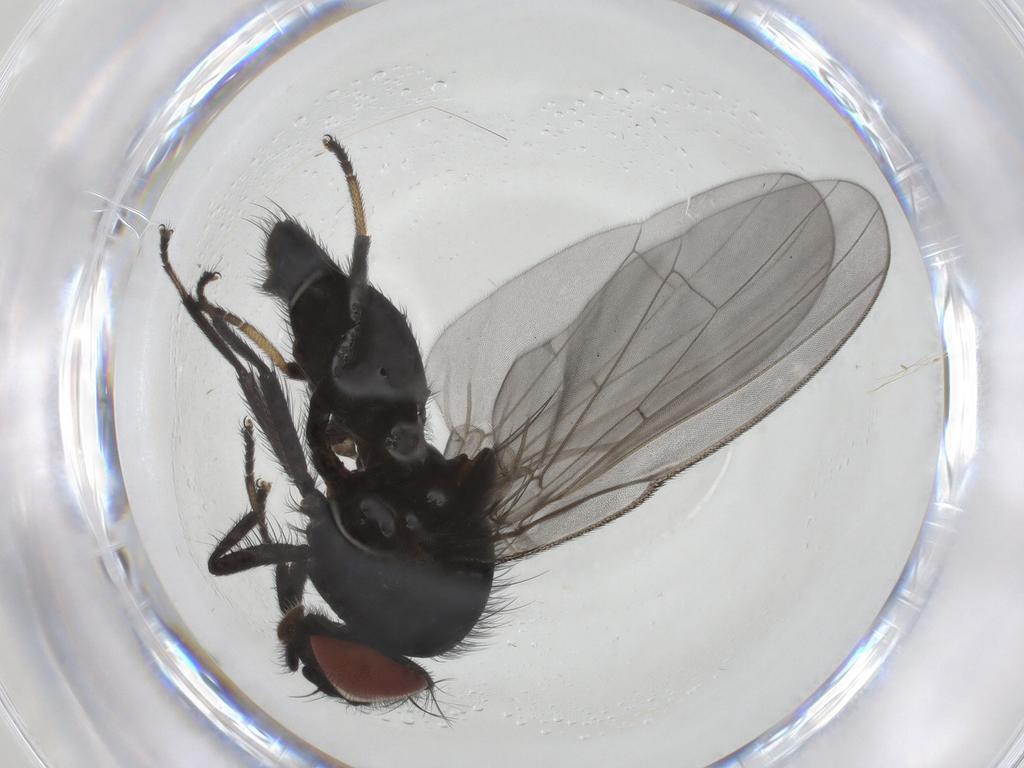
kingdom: Animalia
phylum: Arthropoda
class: Insecta
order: Diptera
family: Lonchaeidae
